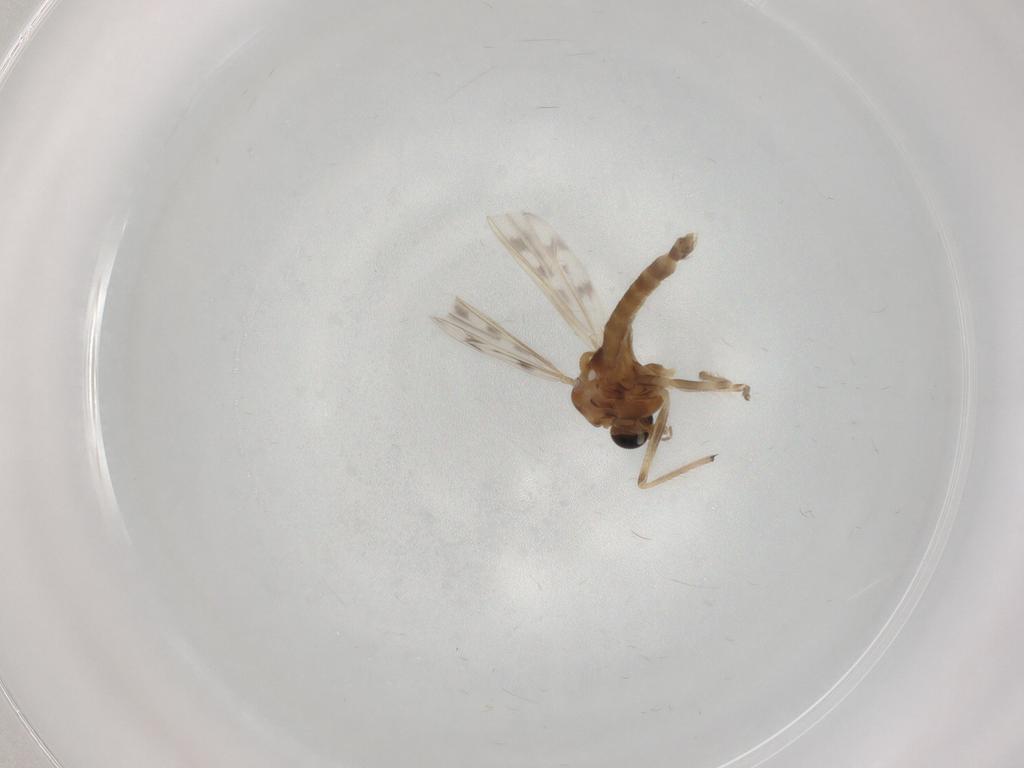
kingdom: Animalia
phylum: Arthropoda
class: Insecta
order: Diptera
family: Chironomidae
